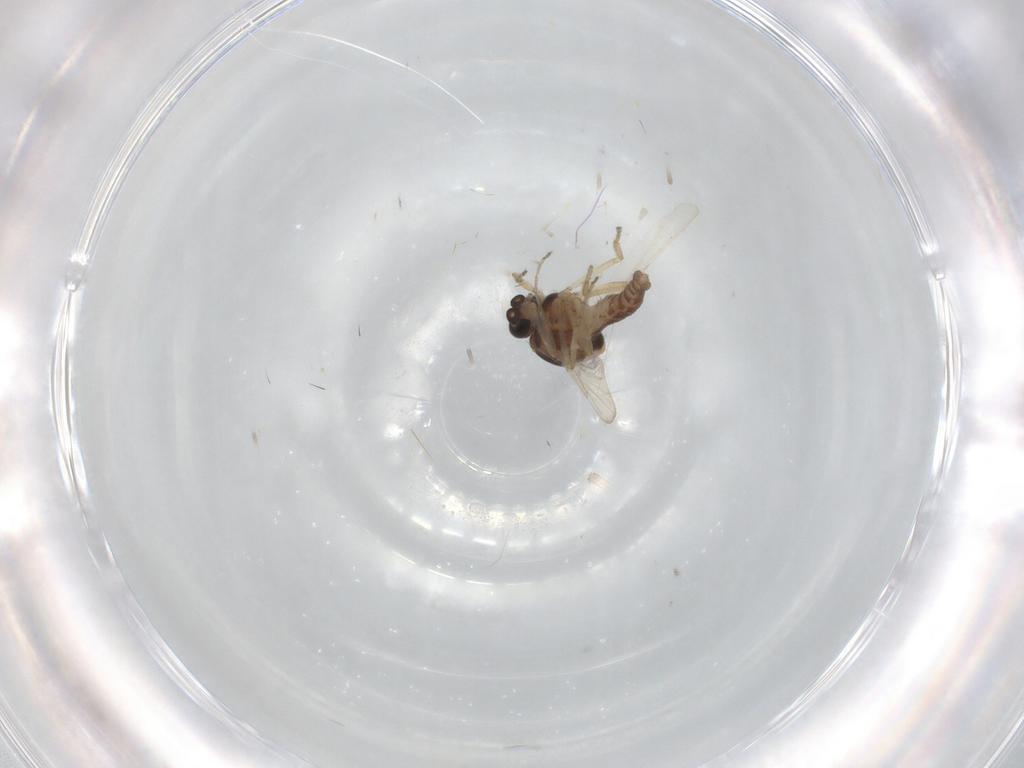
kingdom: Animalia
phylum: Arthropoda
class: Insecta
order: Diptera
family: Ceratopogonidae
